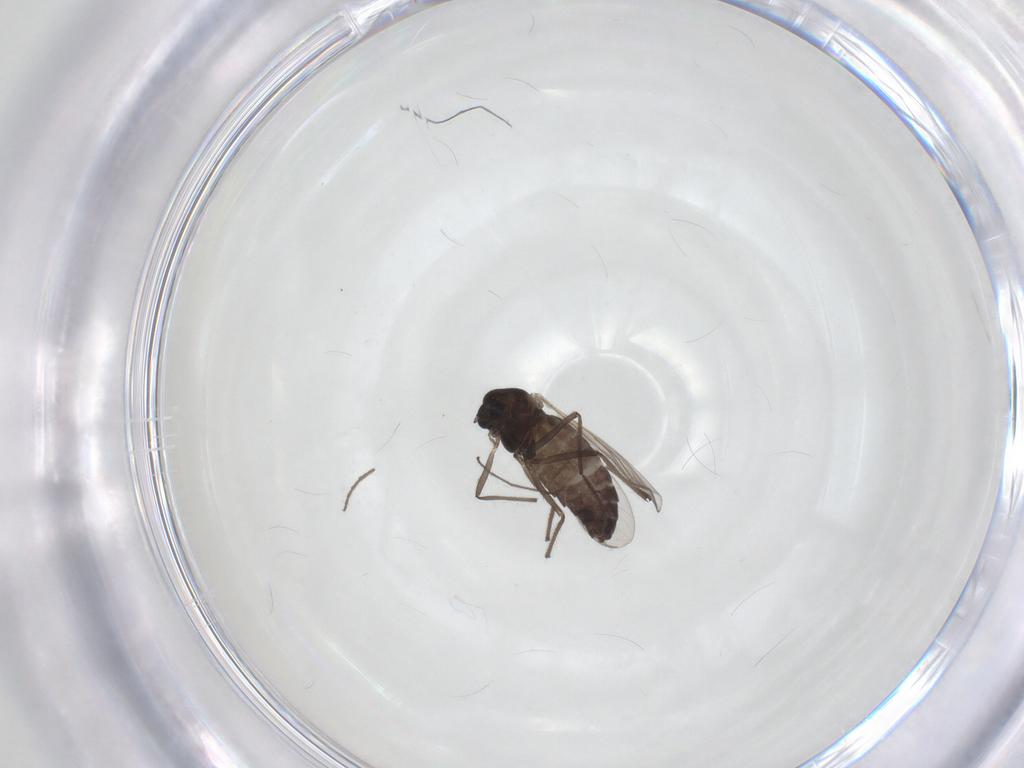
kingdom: Animalia
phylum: Arthropoda
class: Insecta
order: Diptera
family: Chironomidae
